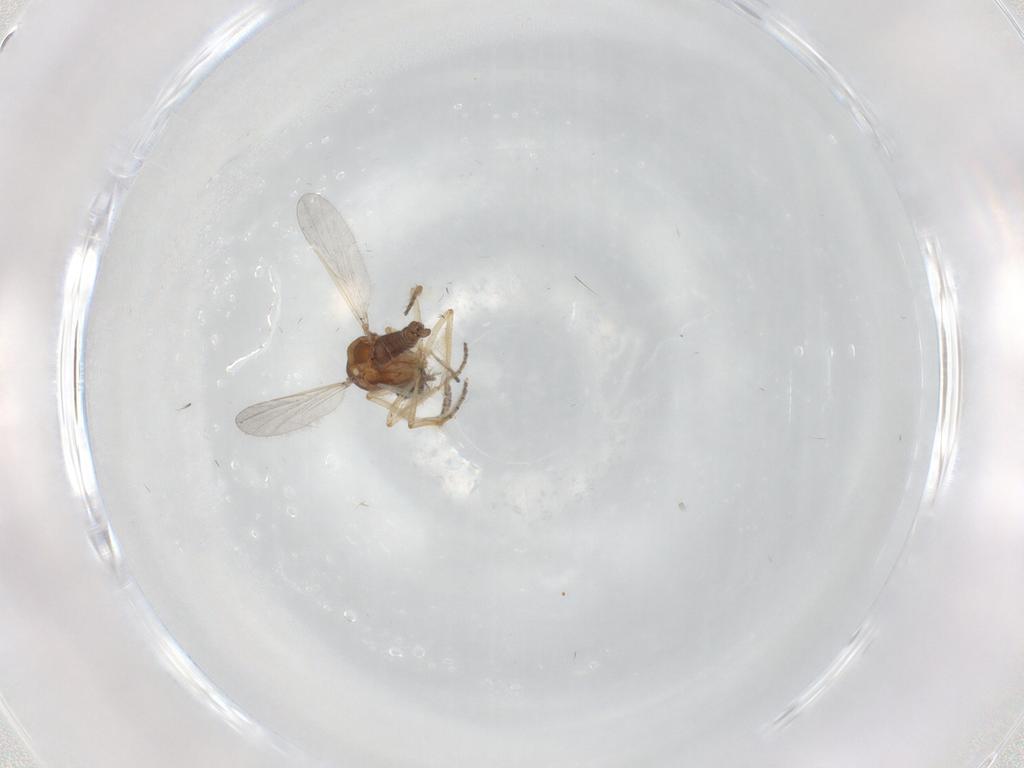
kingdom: Animalia
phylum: Arthropoda
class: Insecta
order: Diptera
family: Ceratopogonidae
